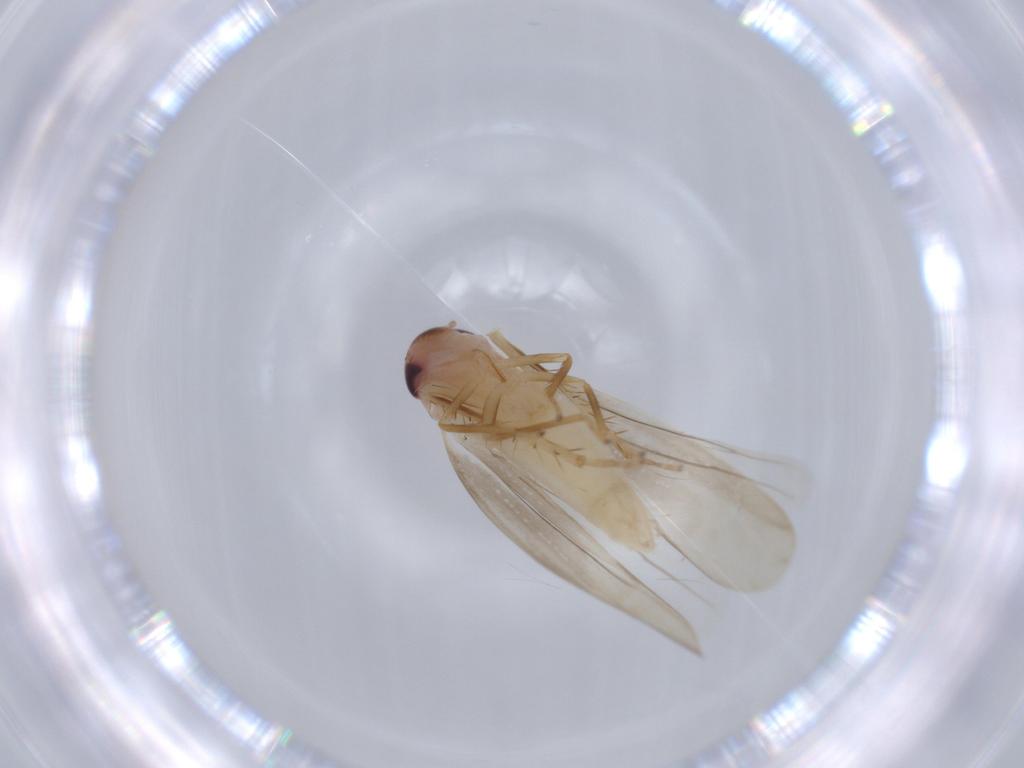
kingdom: Animalia
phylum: Arthropoda
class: Insecta
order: Hemiptera
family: Cicadellidae
